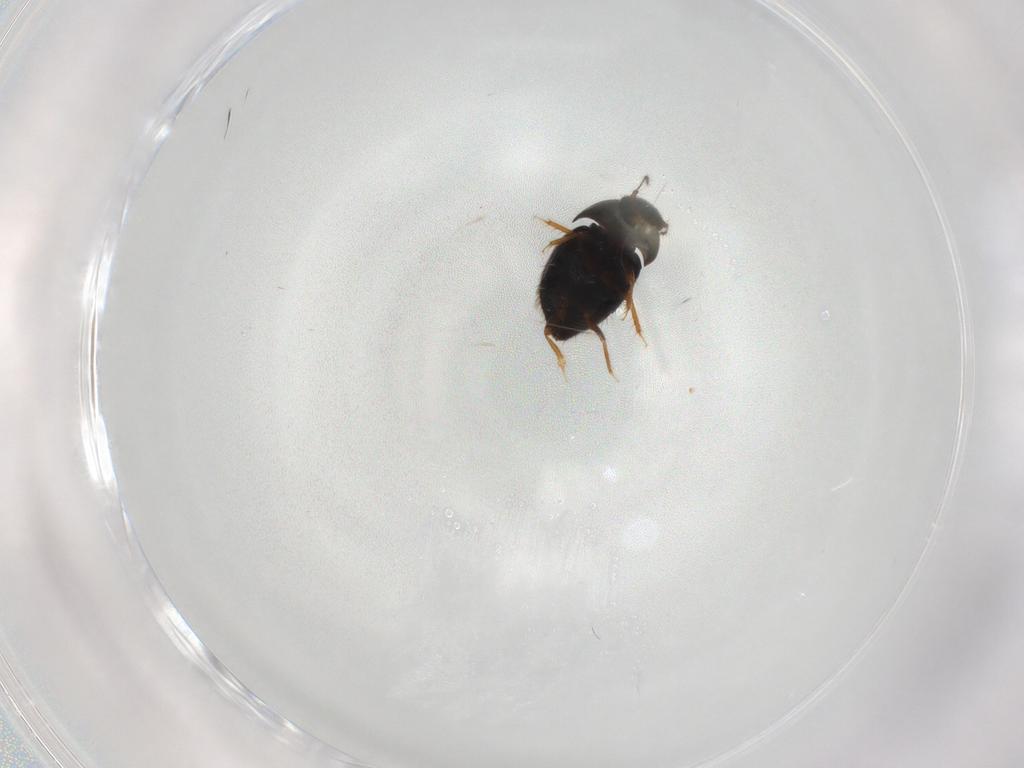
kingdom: Animalia
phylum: Arthropoda
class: Insecta
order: Coleoptera
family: Ptiliidae
